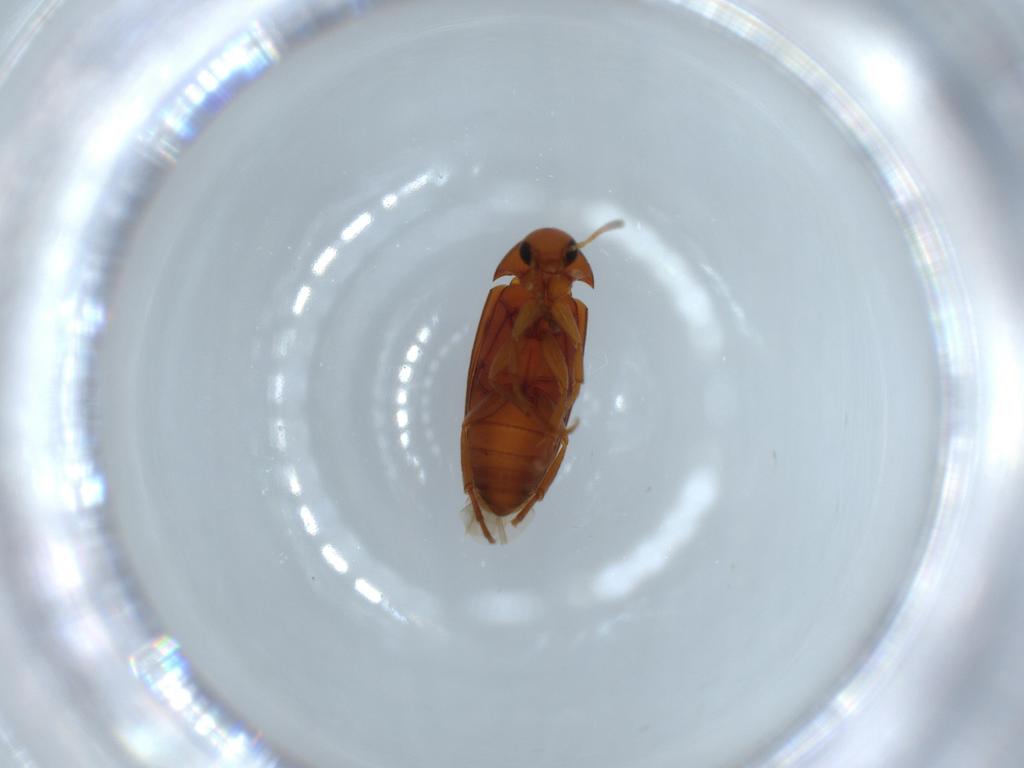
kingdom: Animalia
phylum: Arthropoda
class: Insecta
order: Coleoptera
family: Scraptiidae
